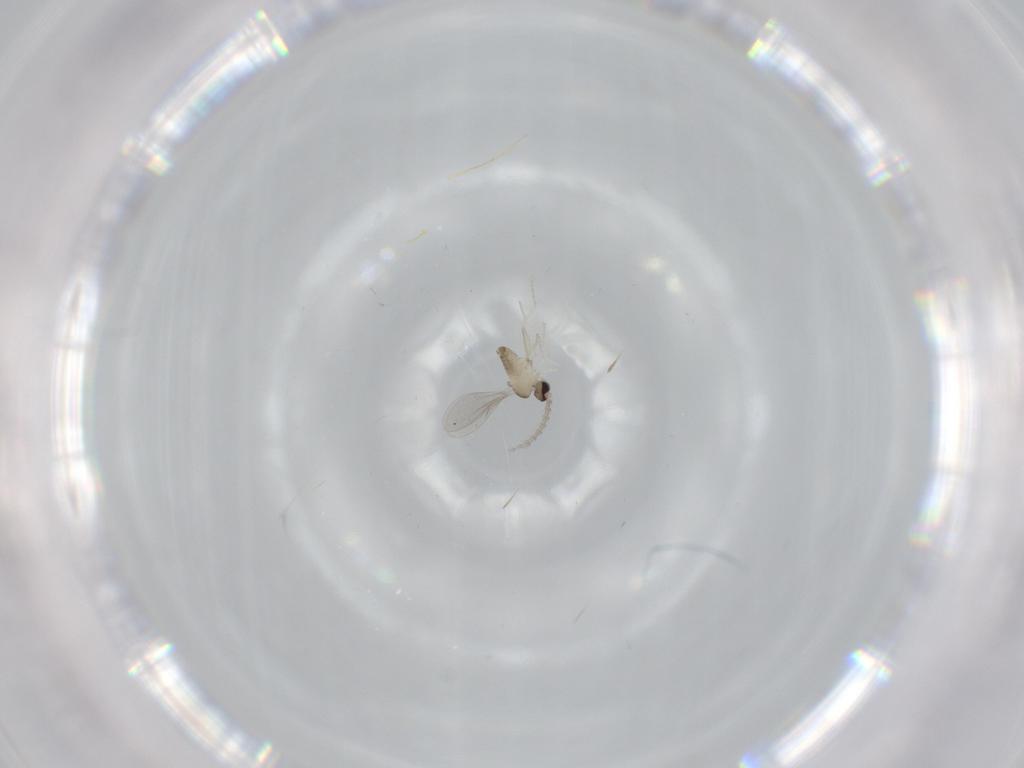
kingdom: Animalia
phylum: Arthropoda
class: Insecta
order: Diptera
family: Cecidomyiidae
